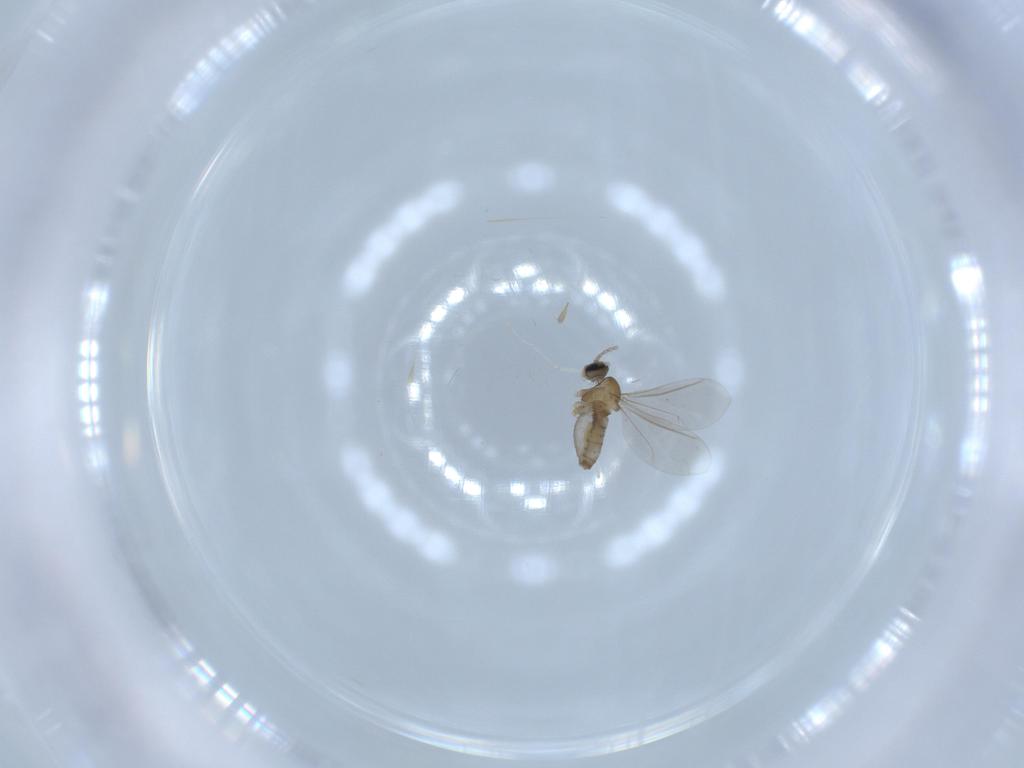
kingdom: Animalia
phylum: Arthropoda
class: Insecta
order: Diptera
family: Cecidomyiidae
